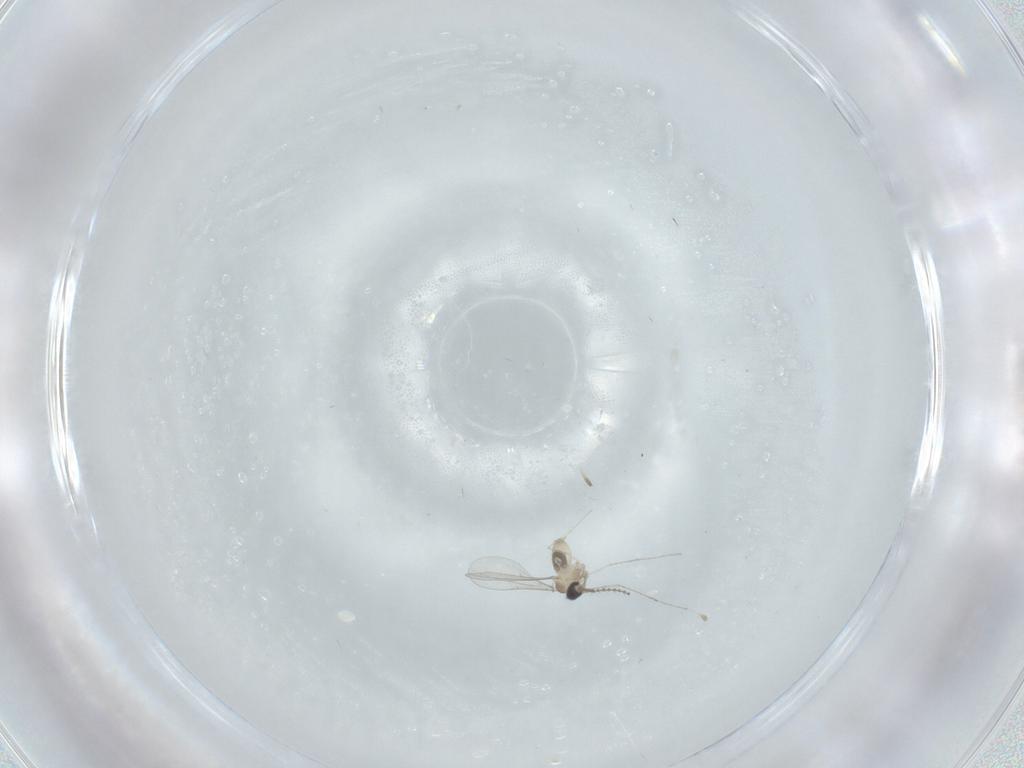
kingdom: Animalia
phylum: Arthropoda
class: Insecta
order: Diptera
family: Cecidomyiidae
